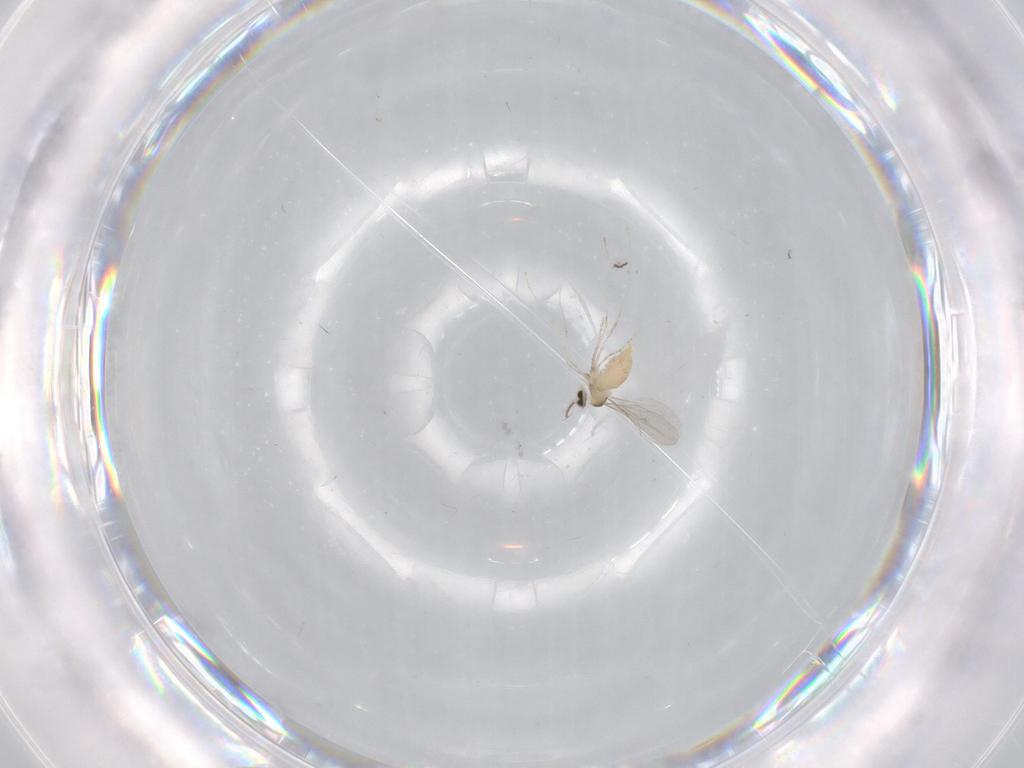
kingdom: Animalia
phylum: Arthropoda
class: Insecta
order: Diptera
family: Cecidomyiidae
